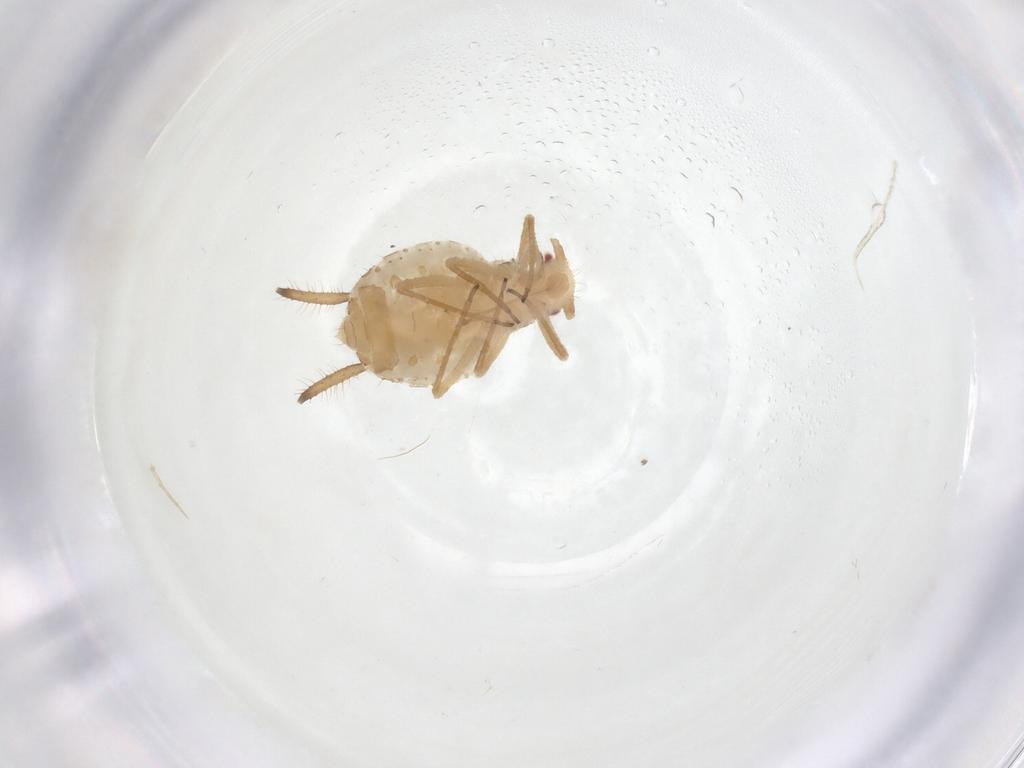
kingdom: Animalia
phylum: Arthropoda
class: Insecta
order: Hemiptera
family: Aphididae
